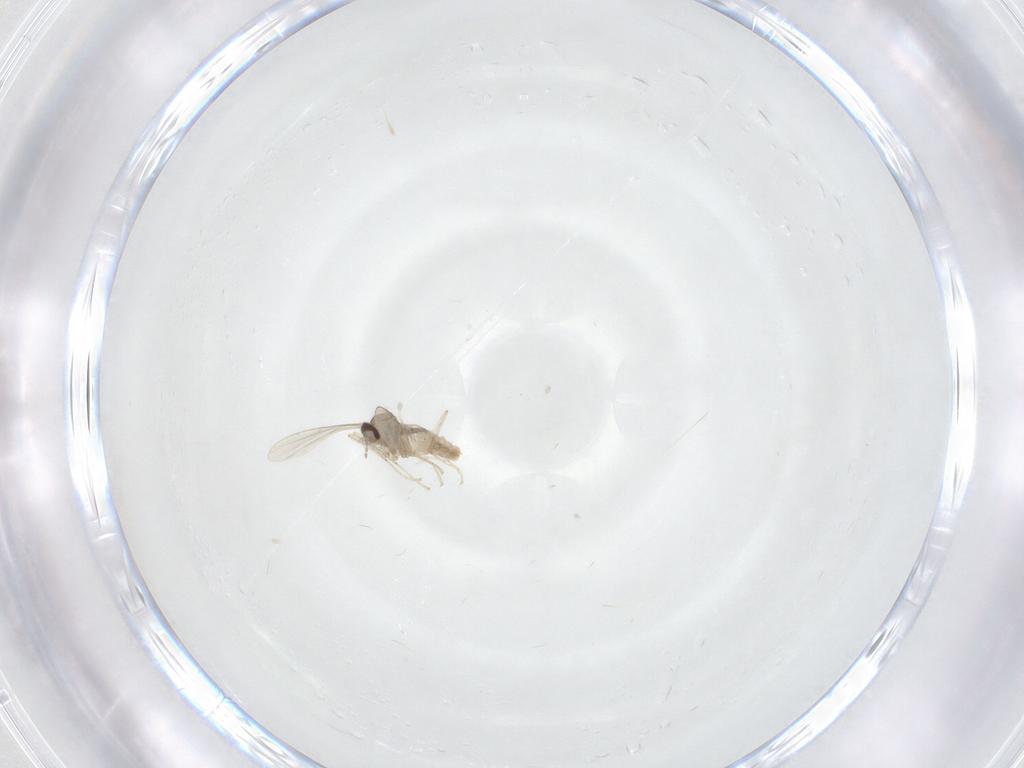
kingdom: Animalia
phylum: Arthropoda
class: Insecta
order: Diptera
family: Cecidomyiidae
